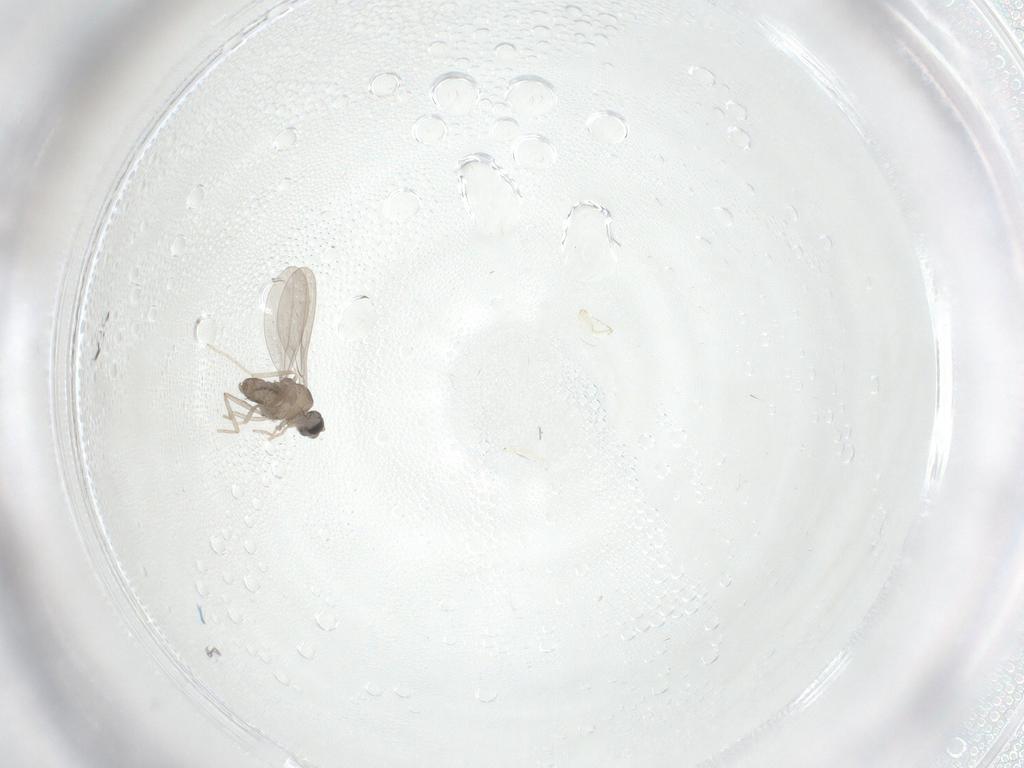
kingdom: Animalia
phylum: Arthropoda
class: Insecta
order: Diptera
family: Cecidomyiidae
